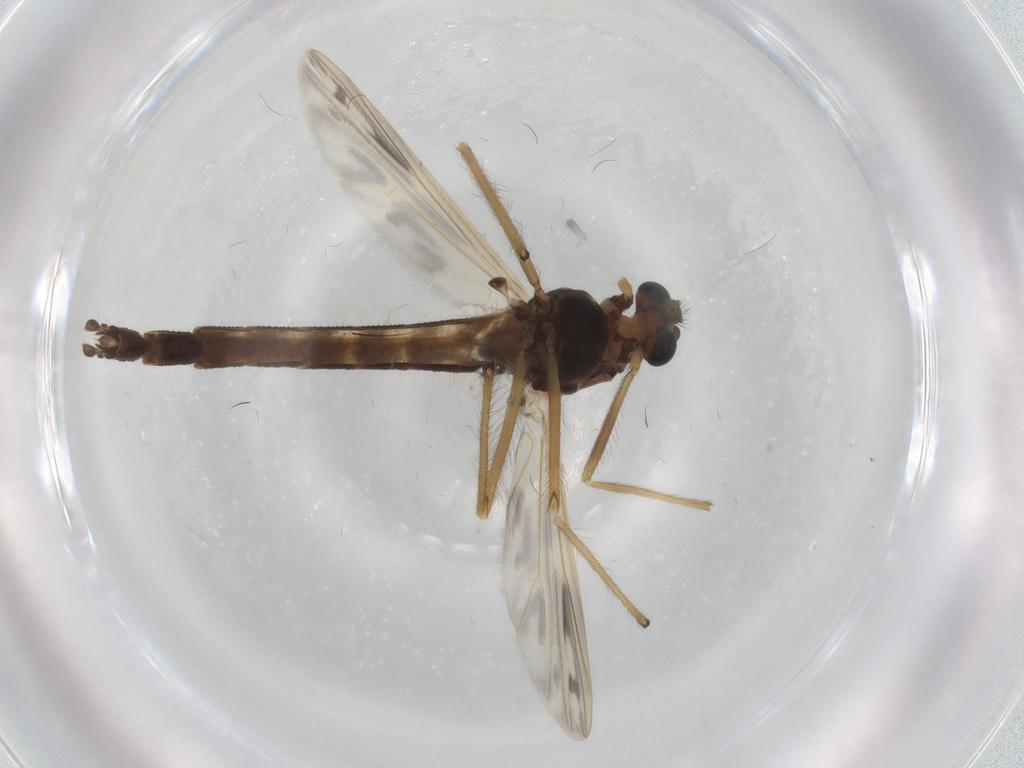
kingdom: Animalia
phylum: Arthropoda
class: Insecta
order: Diptera
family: Chironomidae
